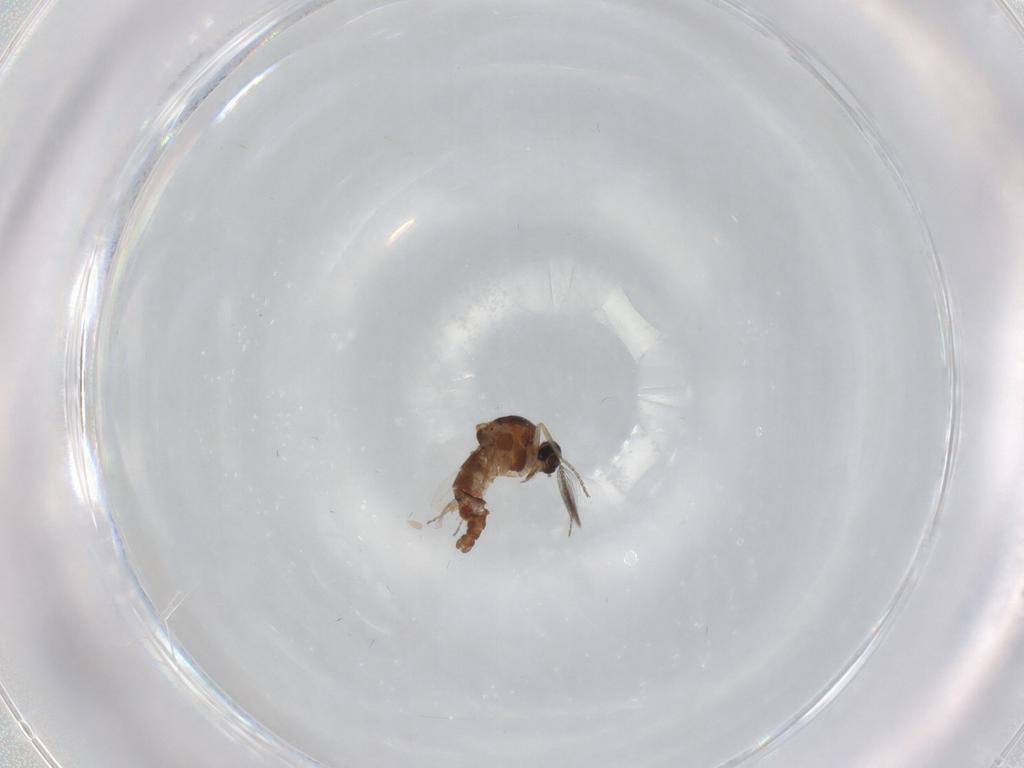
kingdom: Animalia
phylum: Arthropoda
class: Insecta
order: Diptera
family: Ceratopogonidae
